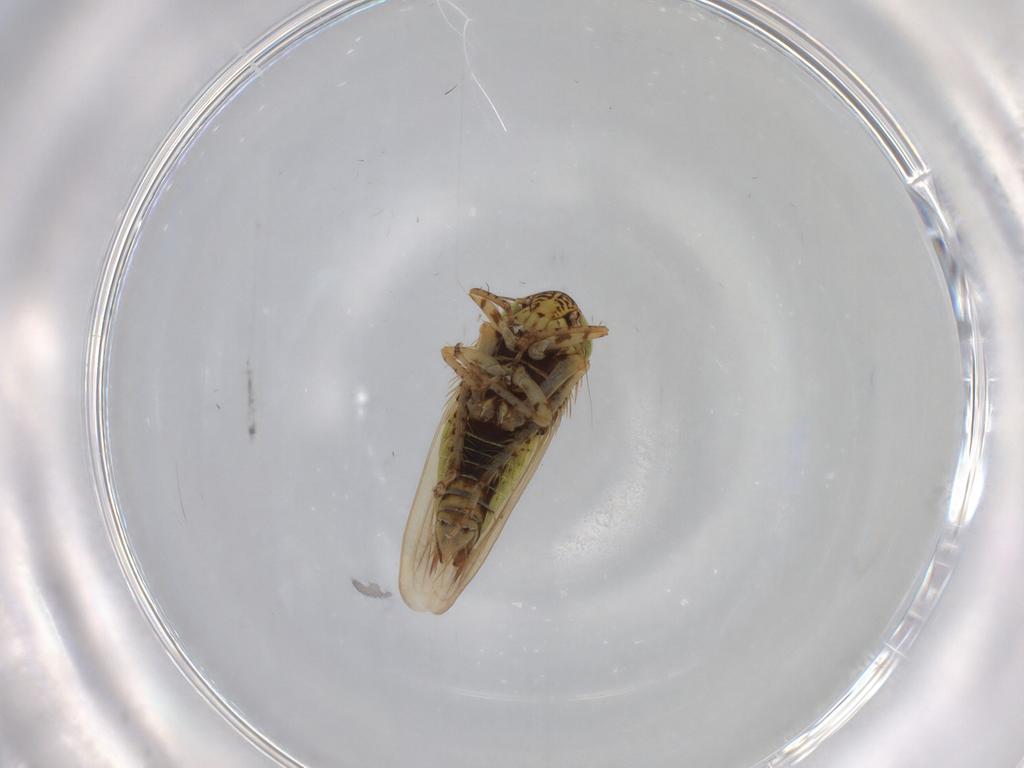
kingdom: Animalia
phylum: Arthropoda
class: Insecta
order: Hemiptera
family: Cicadellidae
